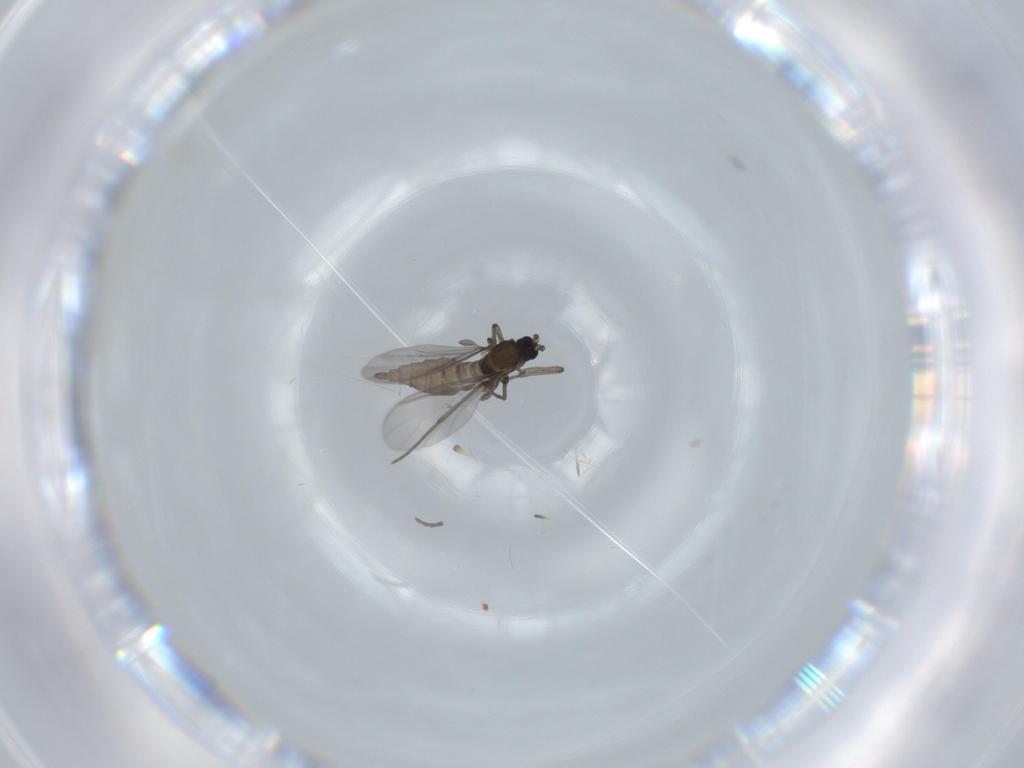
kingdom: Animalia
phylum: Arthropoda
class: Insecta
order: Diptera
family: Sciaridae
